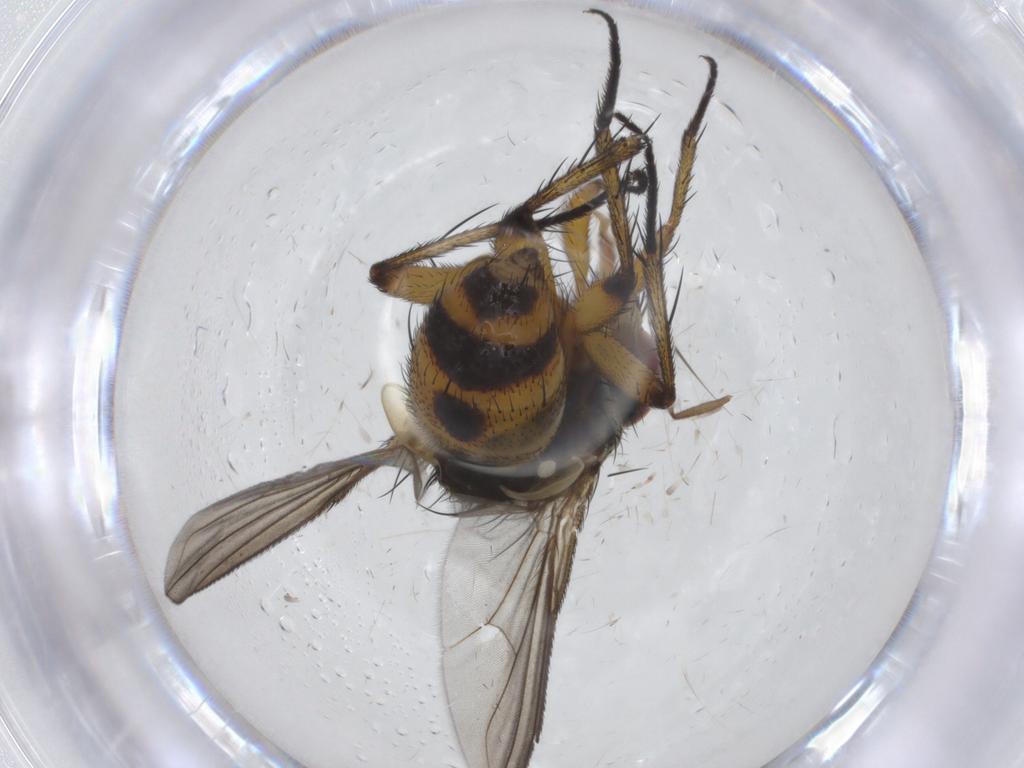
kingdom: Animalia
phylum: Arthropoda
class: Insecta
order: Diptera
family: Tachinidae
